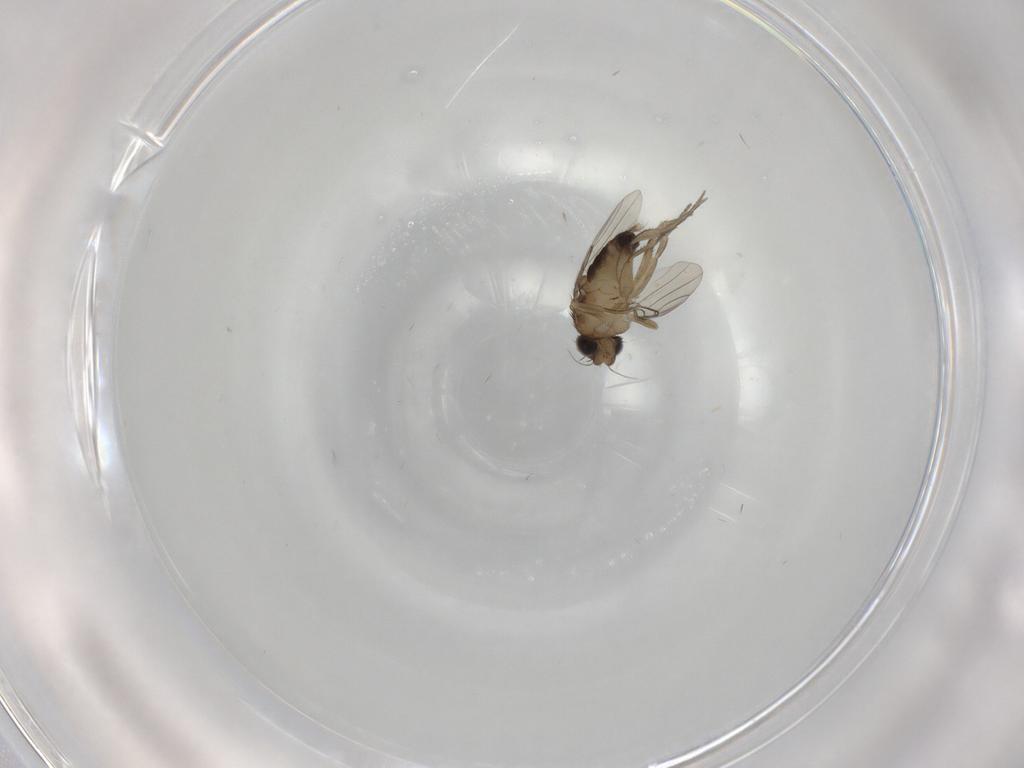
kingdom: Animalia
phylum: Arthropoda
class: Insecta
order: Diptera
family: Phoridae
